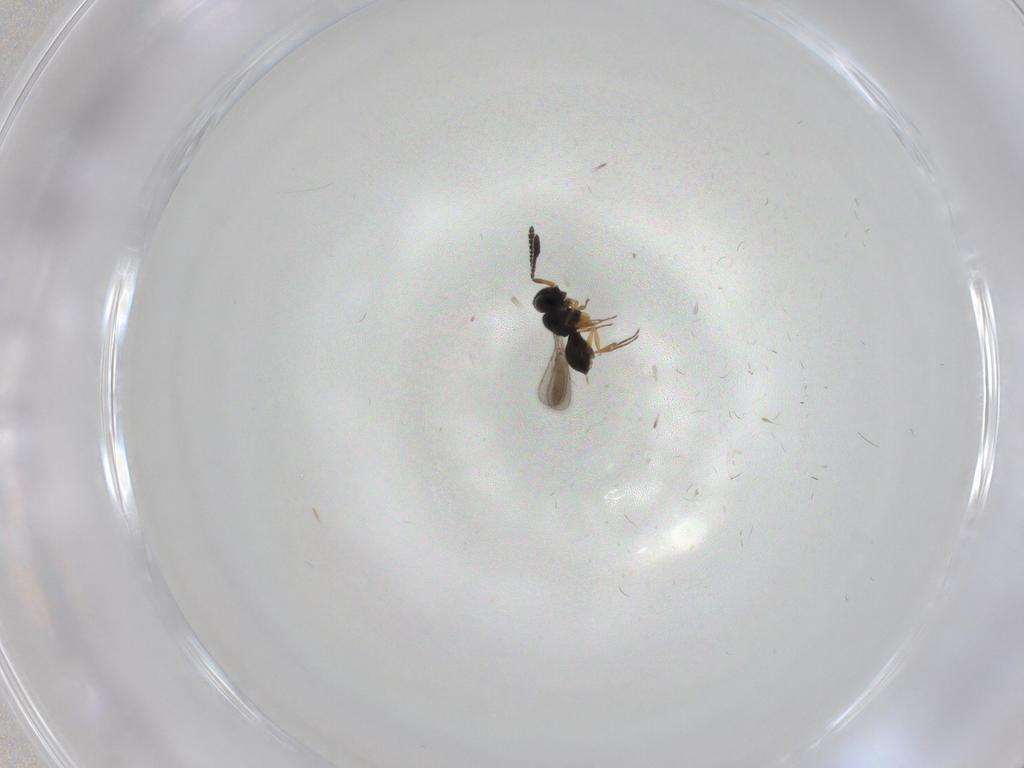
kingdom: Animalia
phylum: Arthropoda
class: Insecta
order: Hymenoptera
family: Scelionidae
